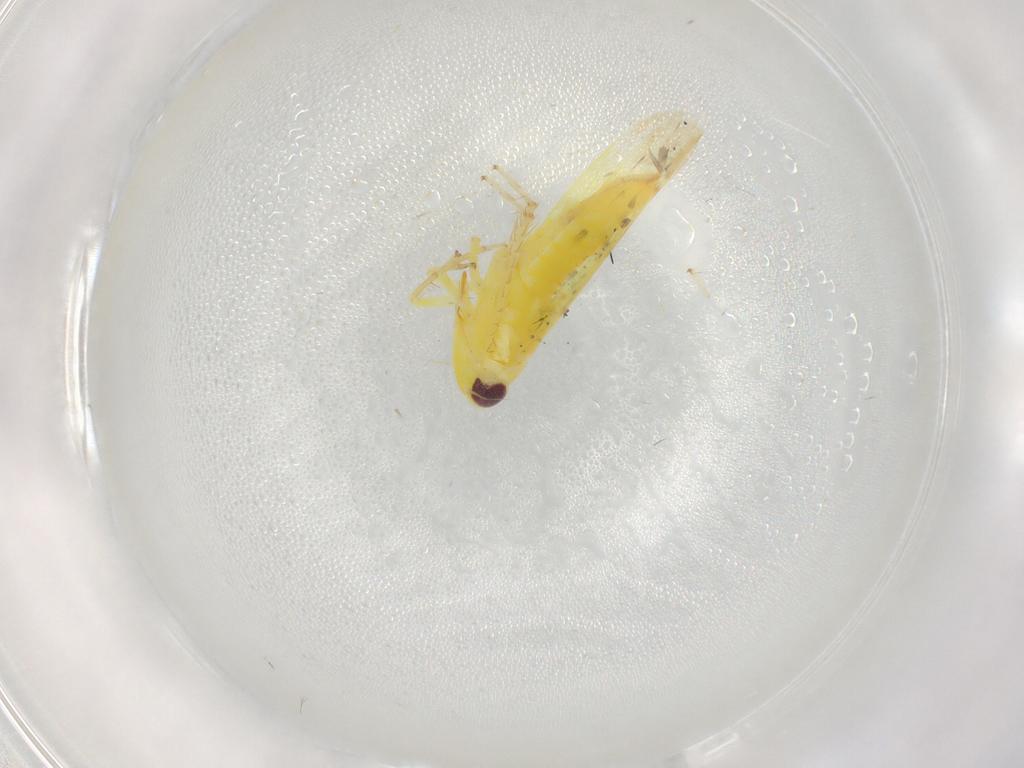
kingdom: Animalia
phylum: Arthropoda
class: Insecta
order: Hemiptera
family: Cicadellidae
